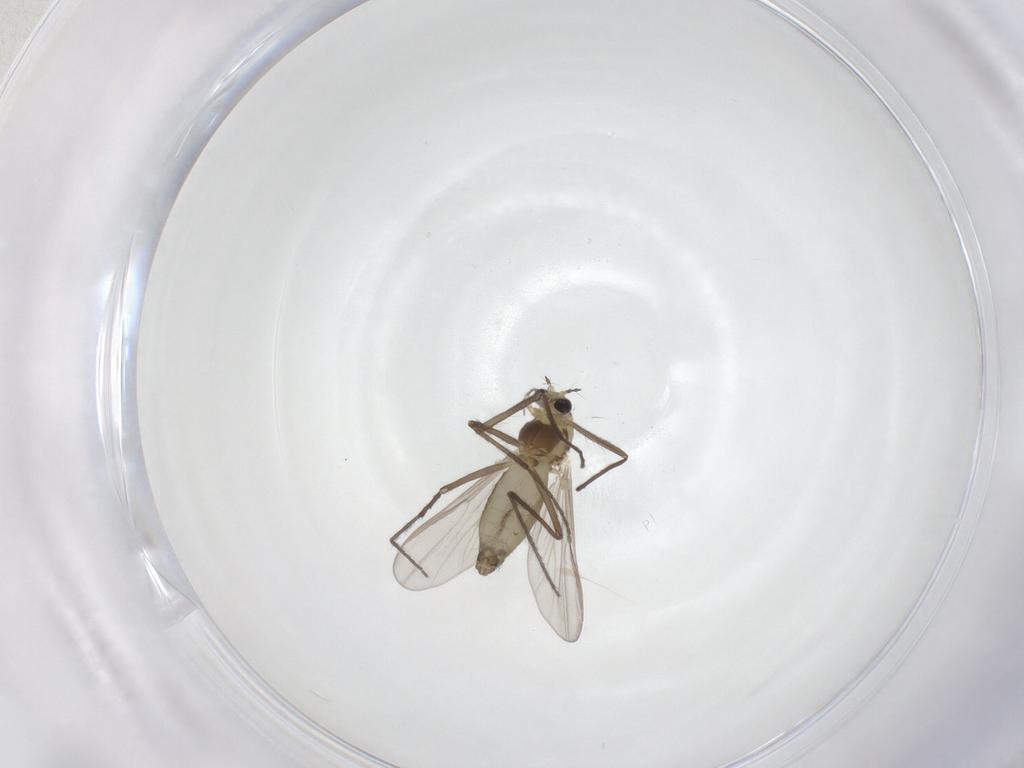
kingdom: Animalia
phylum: Arthropoda
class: Insecta
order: Diptera
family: Chironomidae
